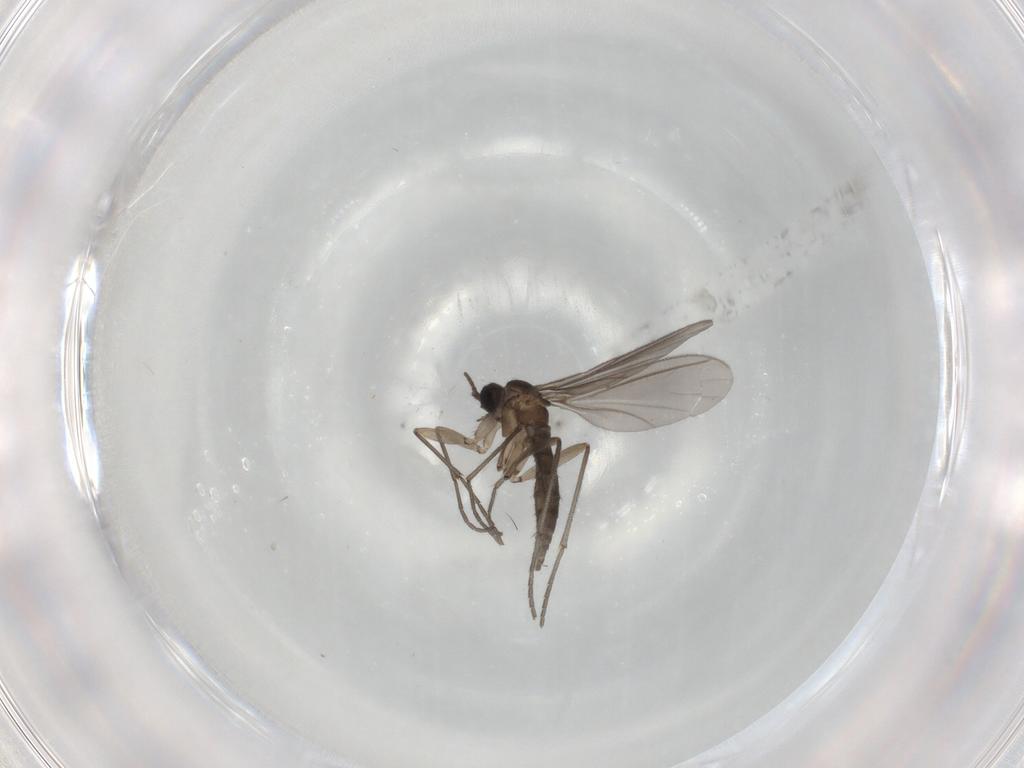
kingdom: Animalia
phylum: Arthropoda
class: Insecta
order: Diptera
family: Sciaridae
